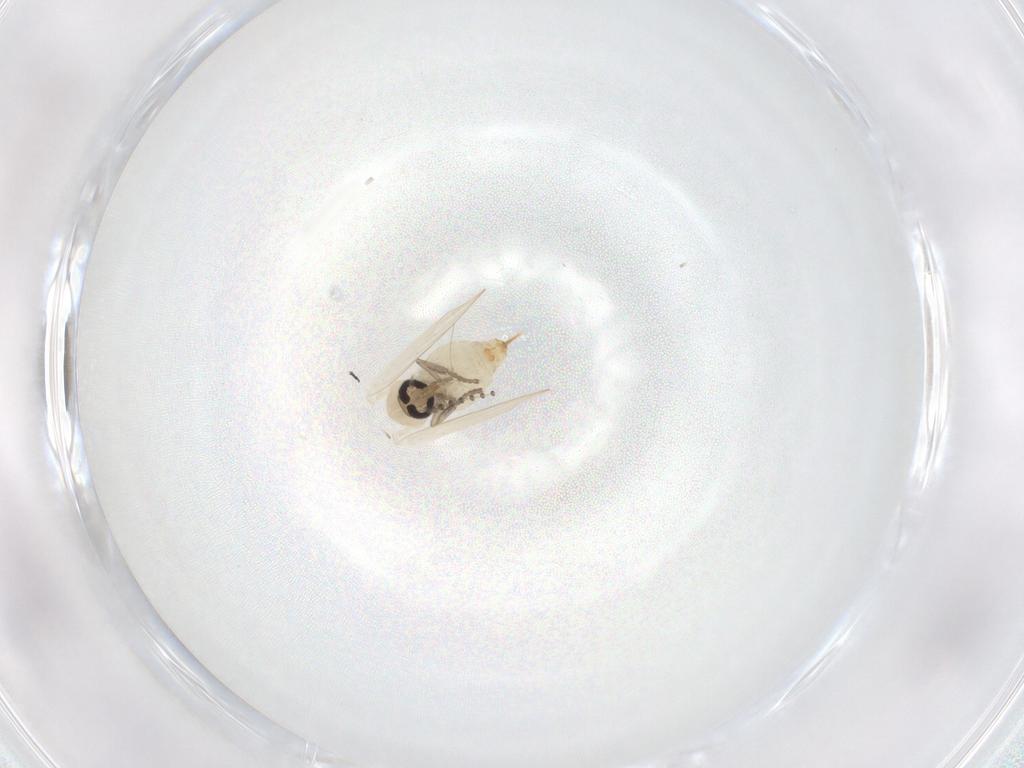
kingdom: Animalia
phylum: Arthropoda
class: Insecta
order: Diptera
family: Psychodidae
